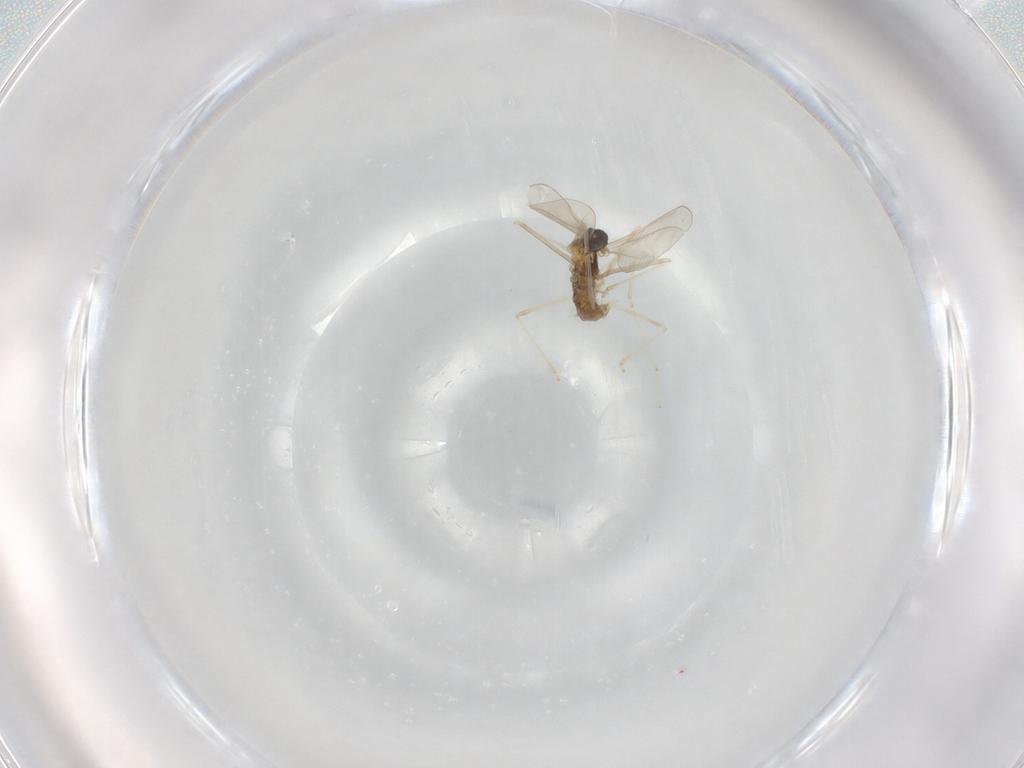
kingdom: Animalia
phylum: Arthropoda
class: Insecta
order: Diptera
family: Cecidomyiidae
